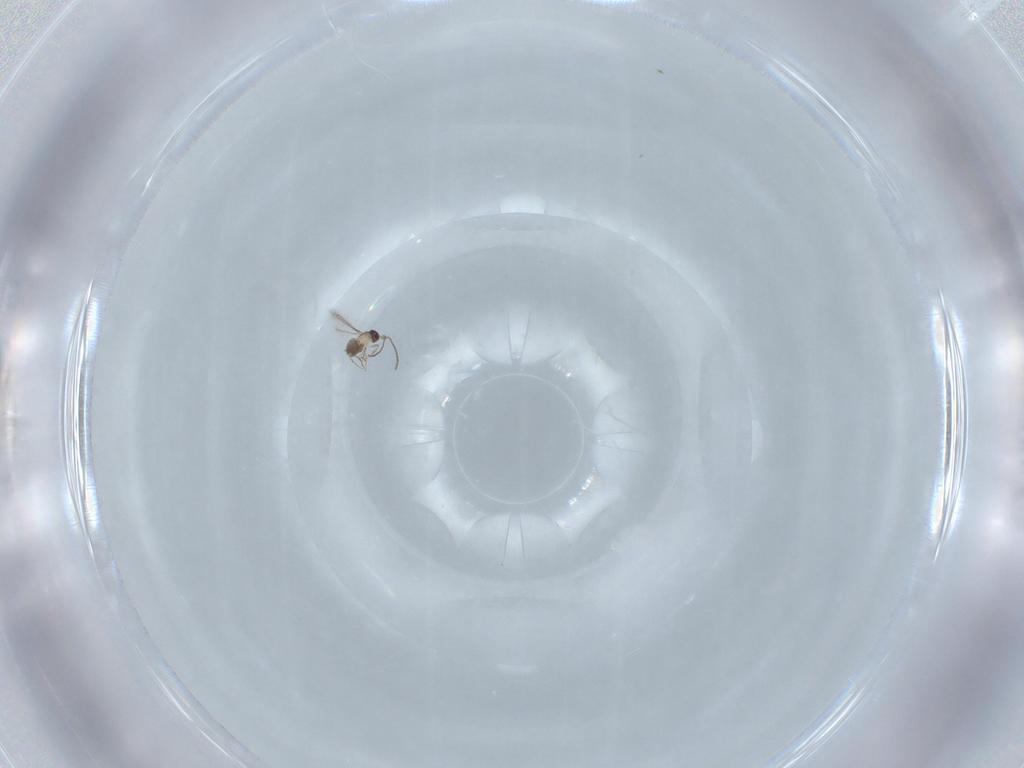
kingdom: Animalia
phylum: Arthropoda
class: Insecta
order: Hymenoptera
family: Mymaridae
